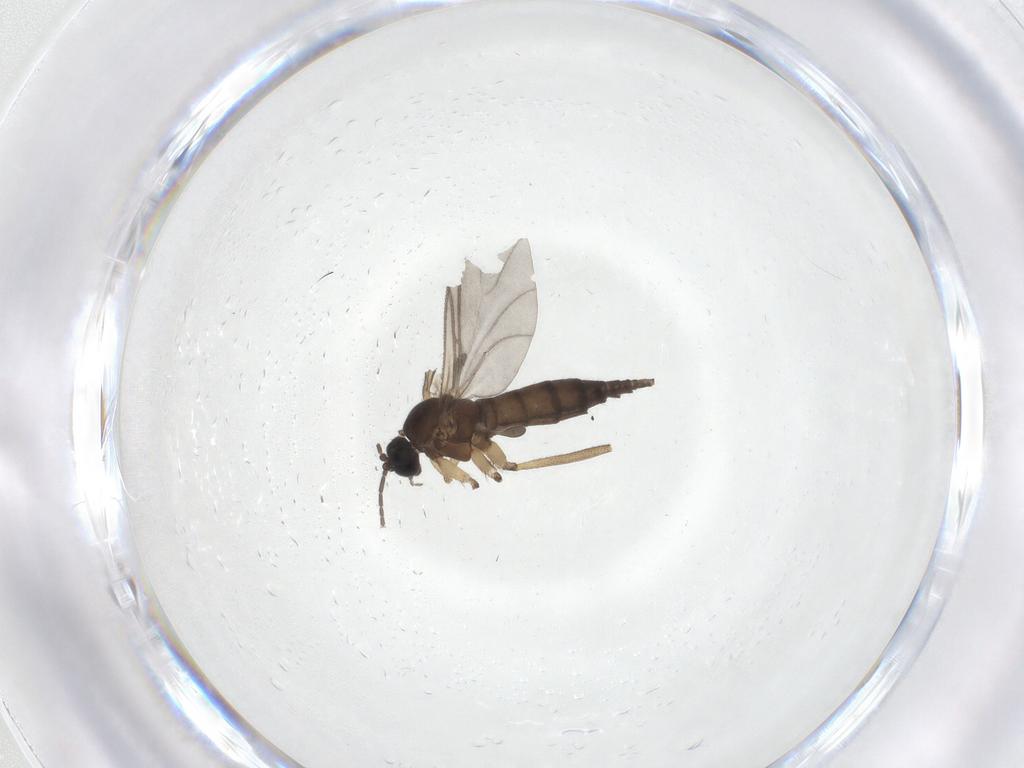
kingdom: Animalia
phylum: Arthropoda
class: Insecta
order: Diptera
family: Sciaridae
